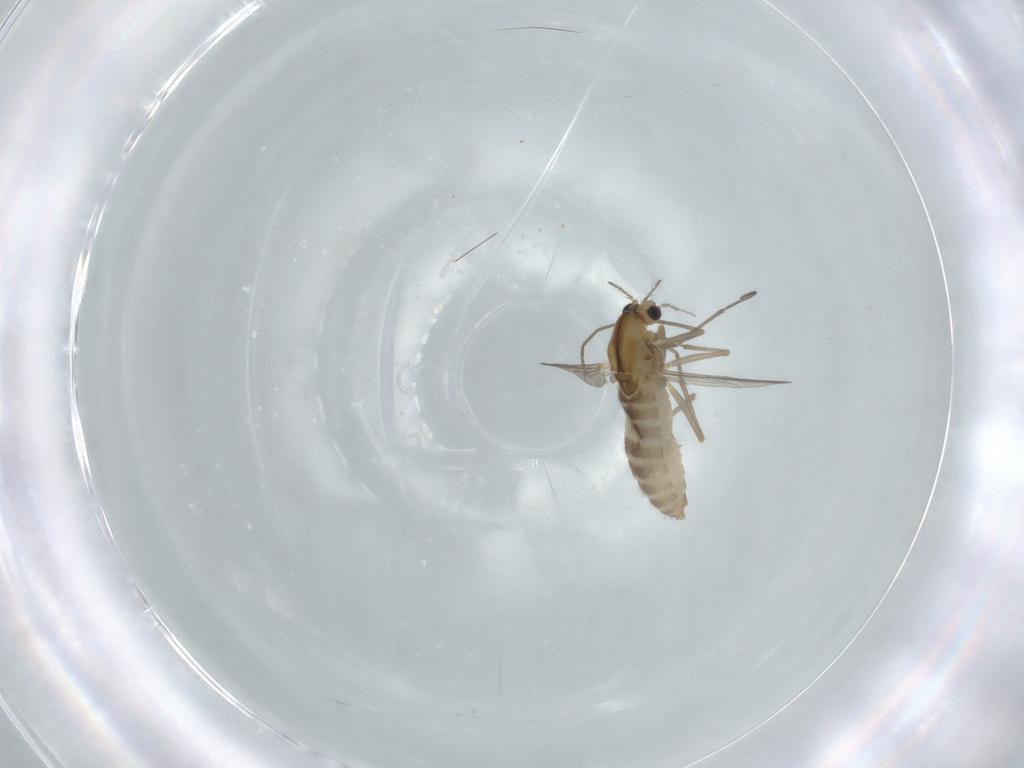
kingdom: Animalia
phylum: Arthropoda
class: Insecta
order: Diptera
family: Chironomidae
